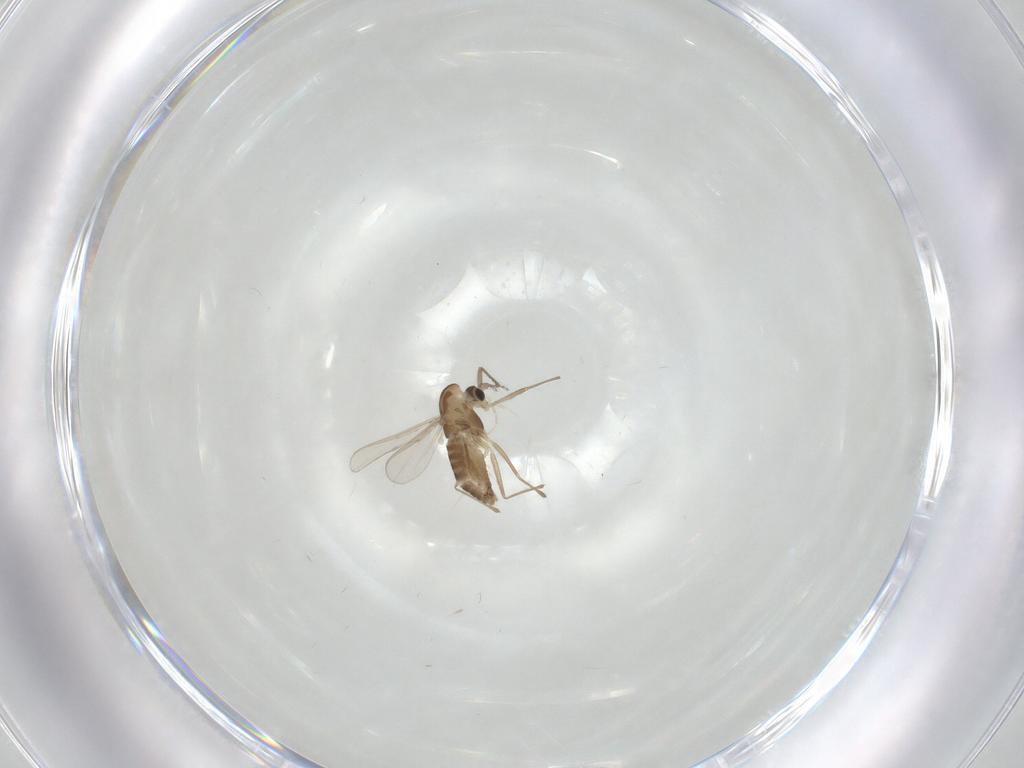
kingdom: Animalia
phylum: Arthropoda
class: Insecta
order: Diptera
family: Chironomidae
